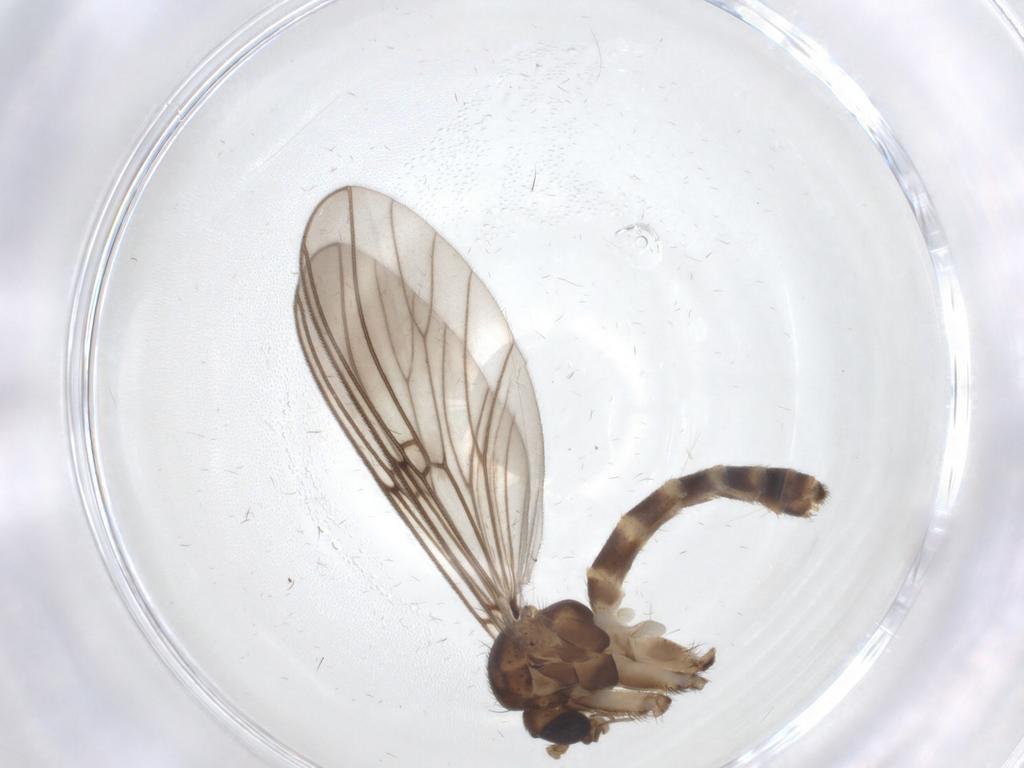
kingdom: Animalia
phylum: Arthropoda
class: Insecta
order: Diptera
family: Mycetophilidae
